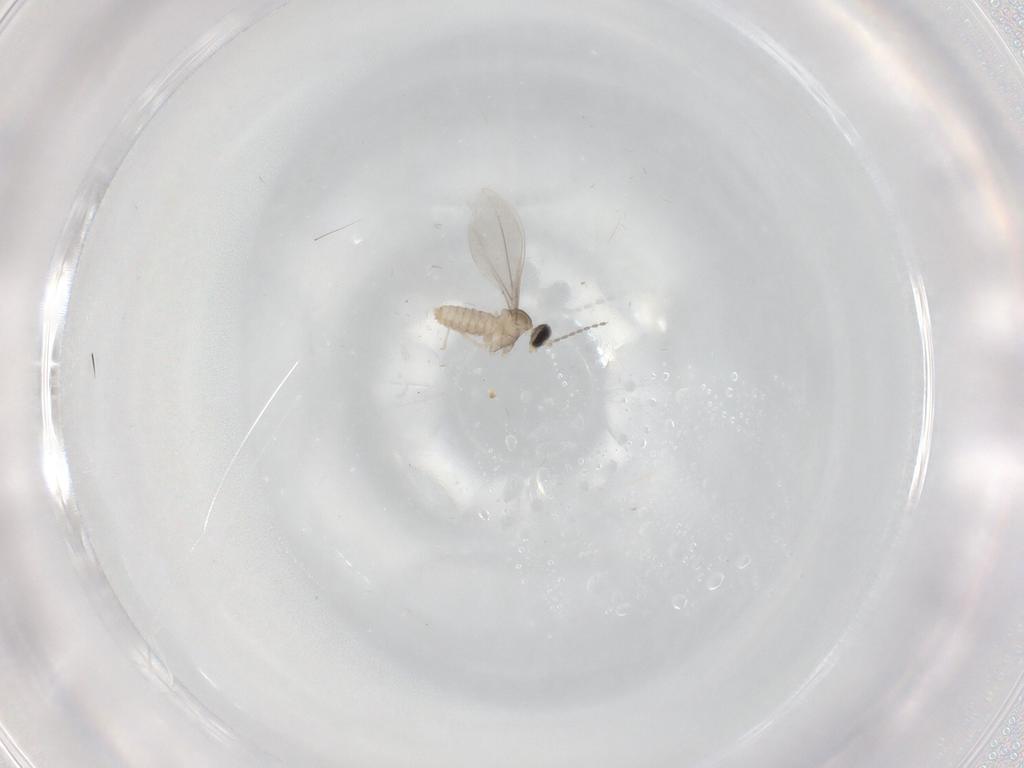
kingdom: Animalia
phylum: Arthropoda
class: Insecta
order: Diptera
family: Cecidomyiidae
